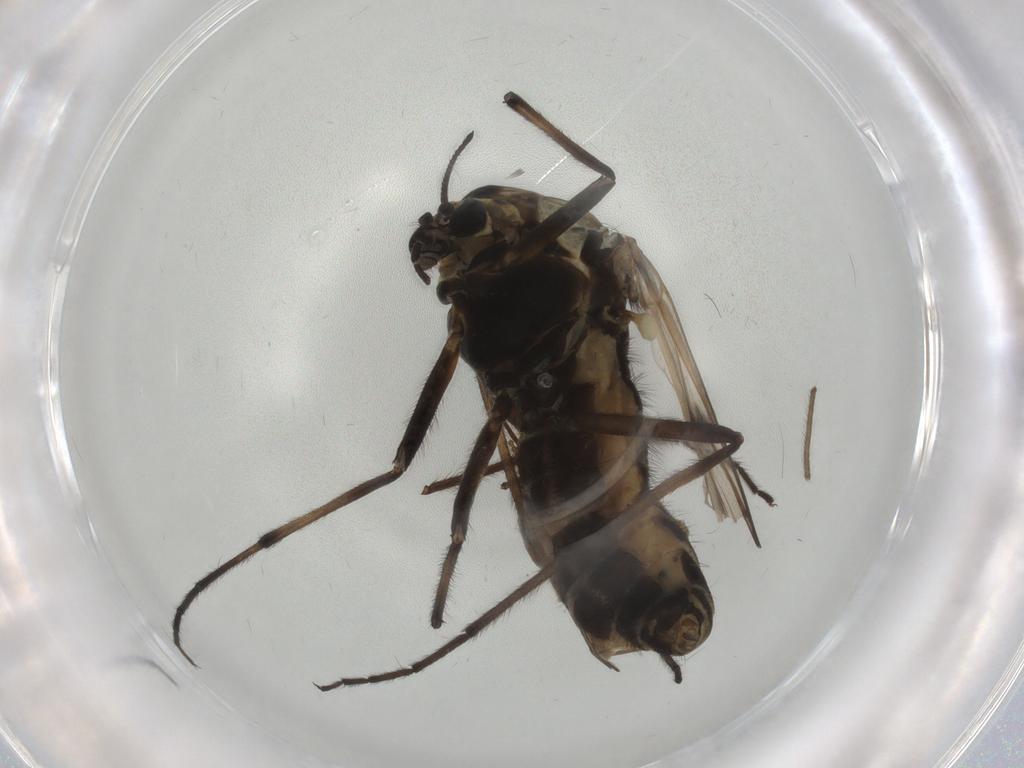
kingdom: Animalia
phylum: Arthropoda
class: Insecta
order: Diptera
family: Chironomidae
